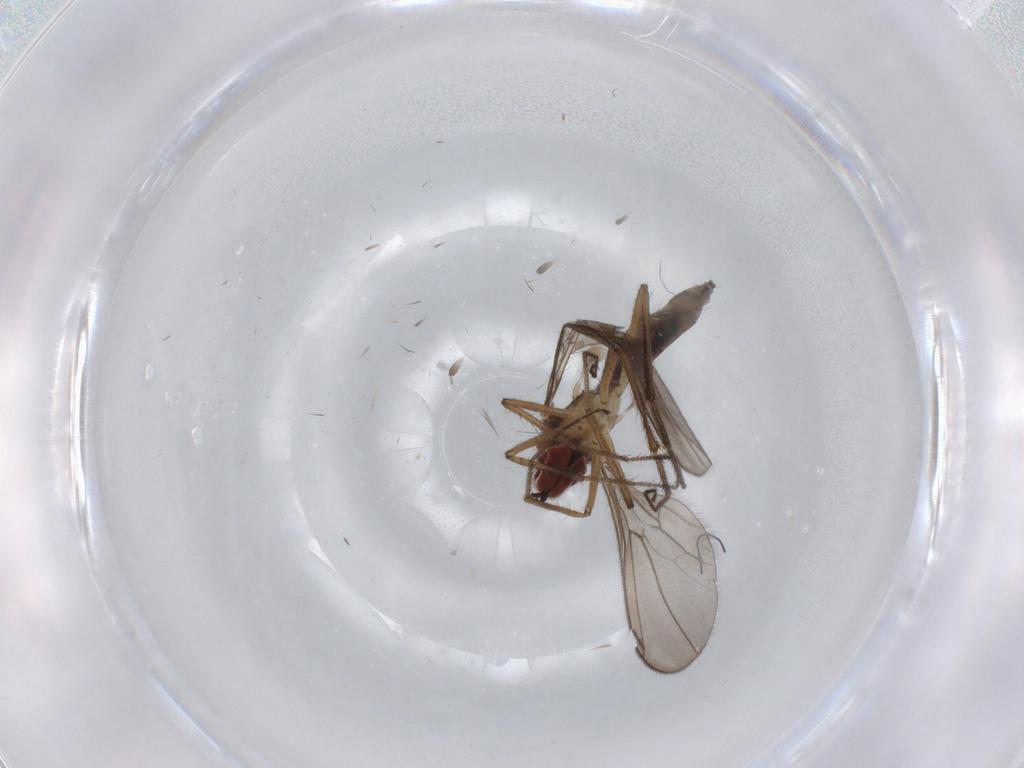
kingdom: Animalia
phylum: Arthropoda
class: Insecta
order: Diptera
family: Hybotidae
